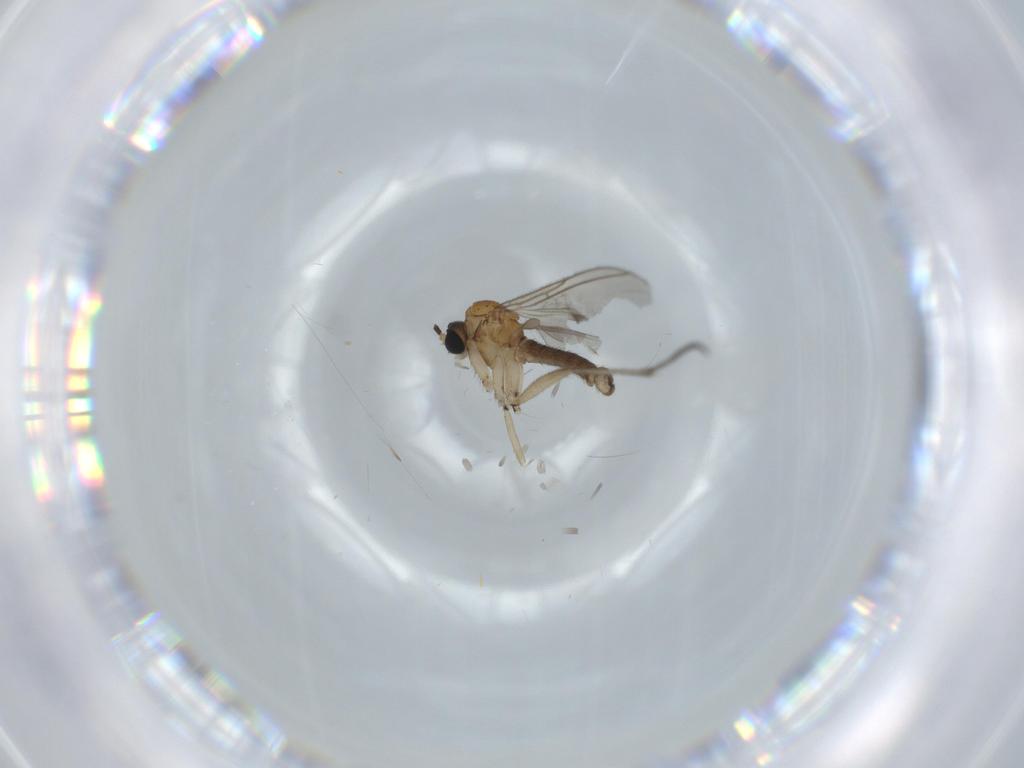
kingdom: Animalia
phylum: Arthropoda
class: Insecta
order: Diptera
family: Sciaridae
